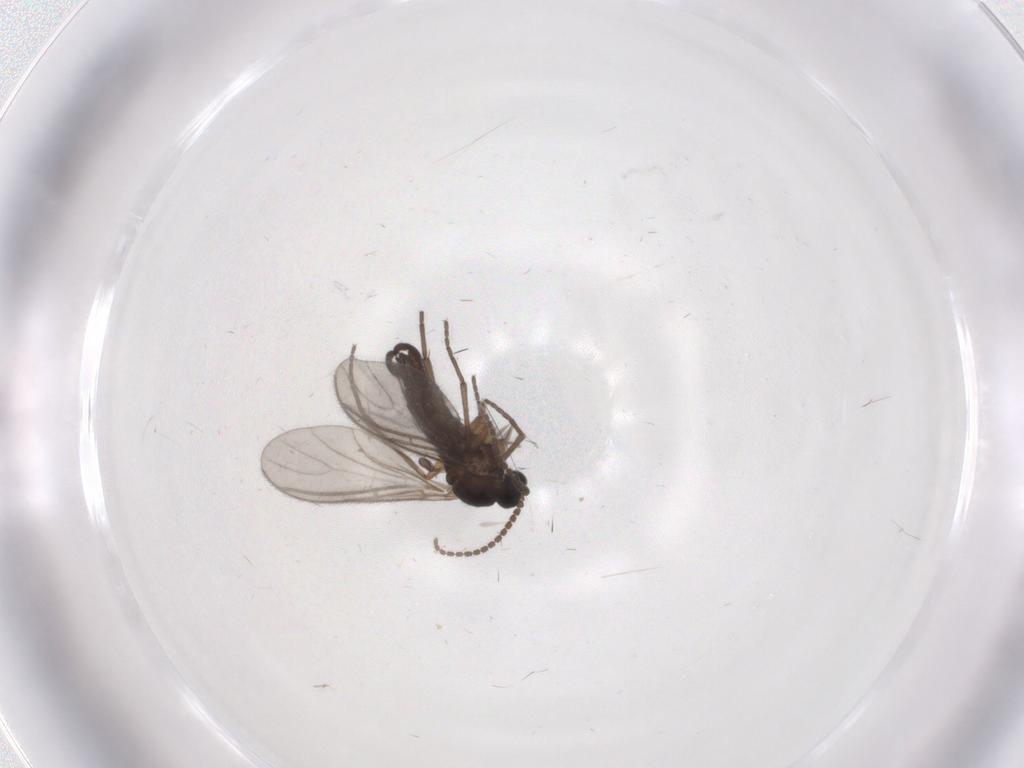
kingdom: Animalia
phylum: Arthropoda
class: Insecta
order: Diptera
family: Sciaridae
